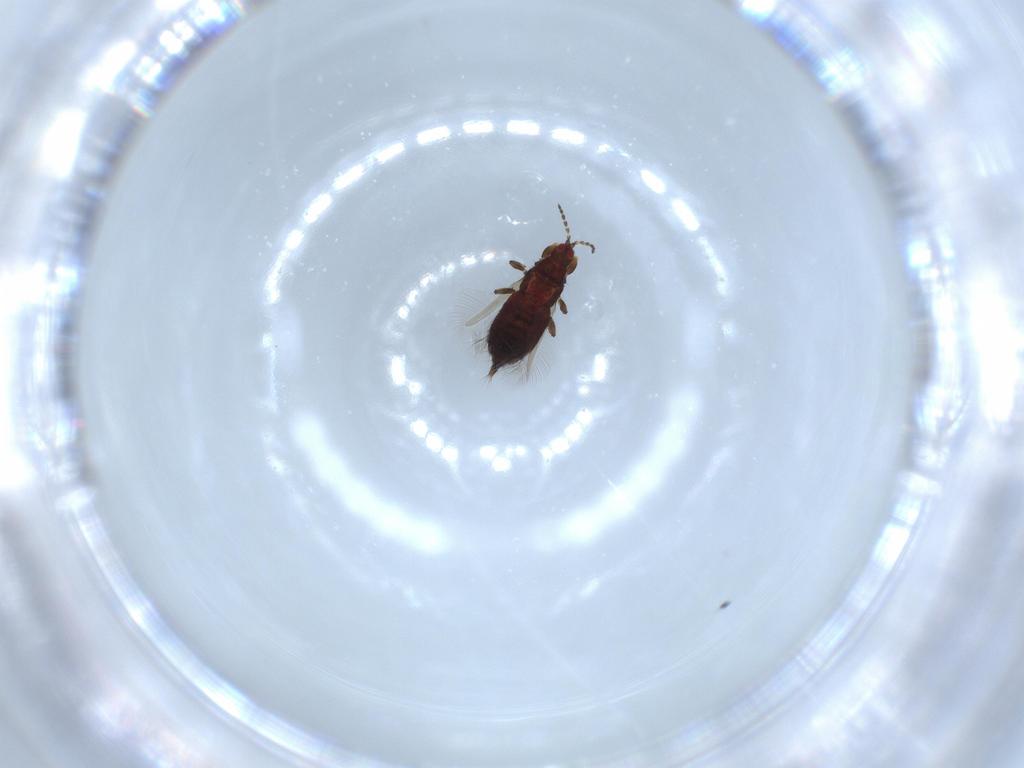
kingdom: Animalia
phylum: Arthropoda
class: Insecta
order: Thysanoptera
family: Phlaeothripidae
